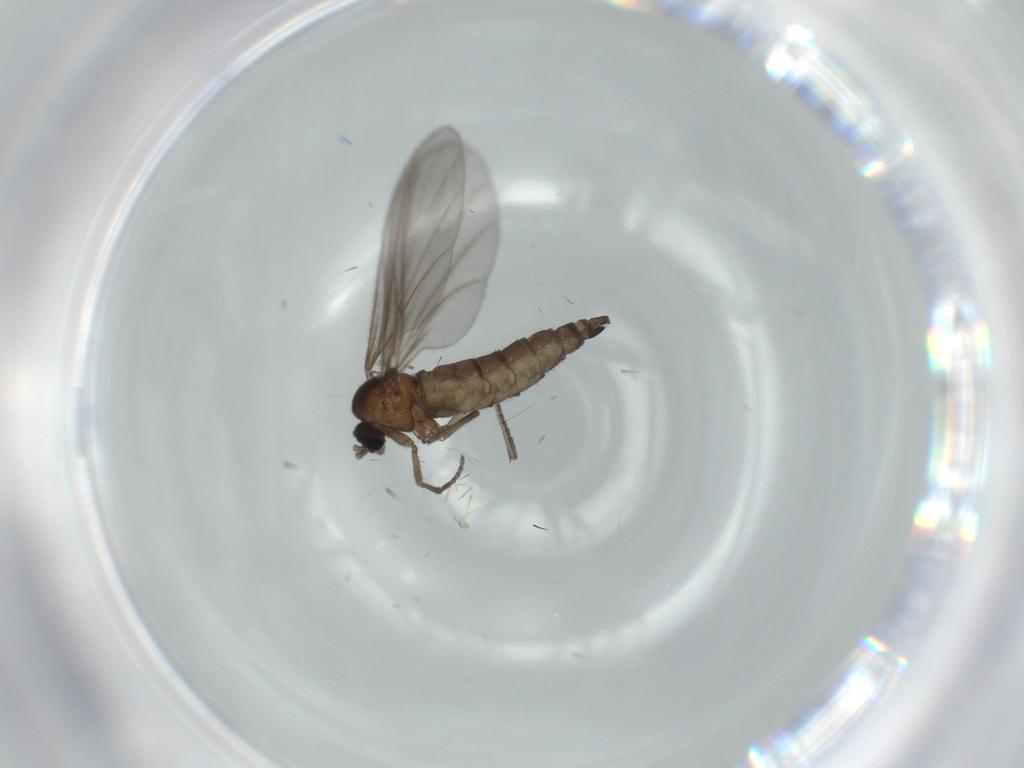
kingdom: Animalia
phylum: Arthropoda
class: Insecta
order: Diptera
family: Sciaridae
